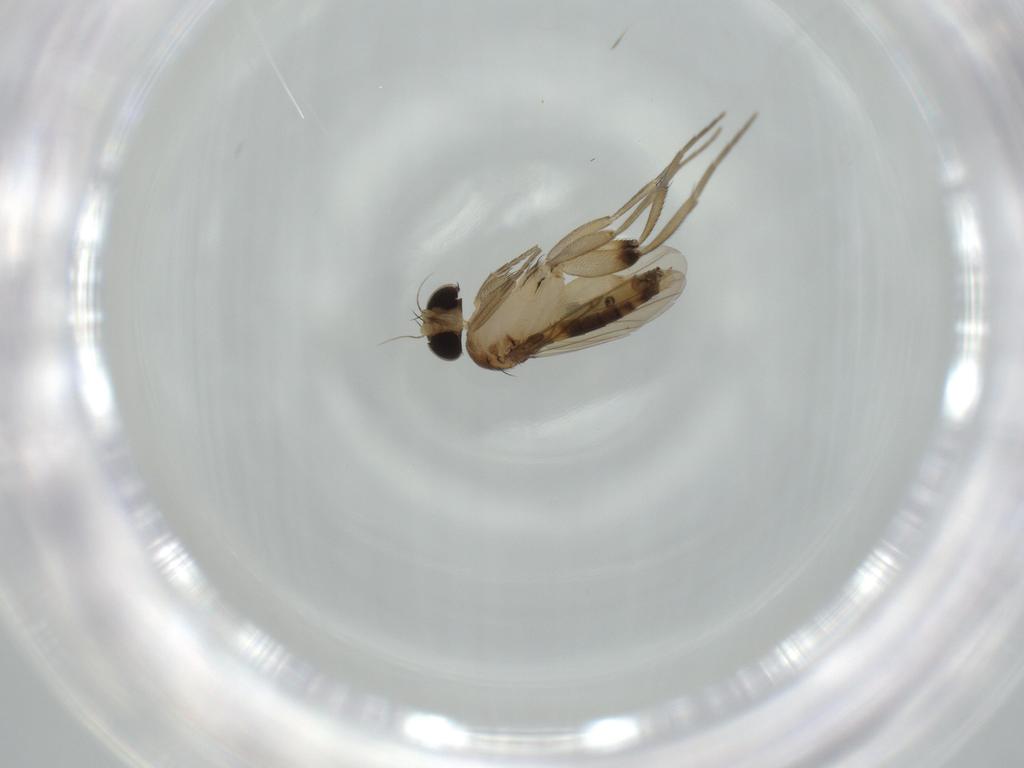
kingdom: Animalia
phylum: Arthropoda
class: Insecta
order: Diptera
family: Phoridae
